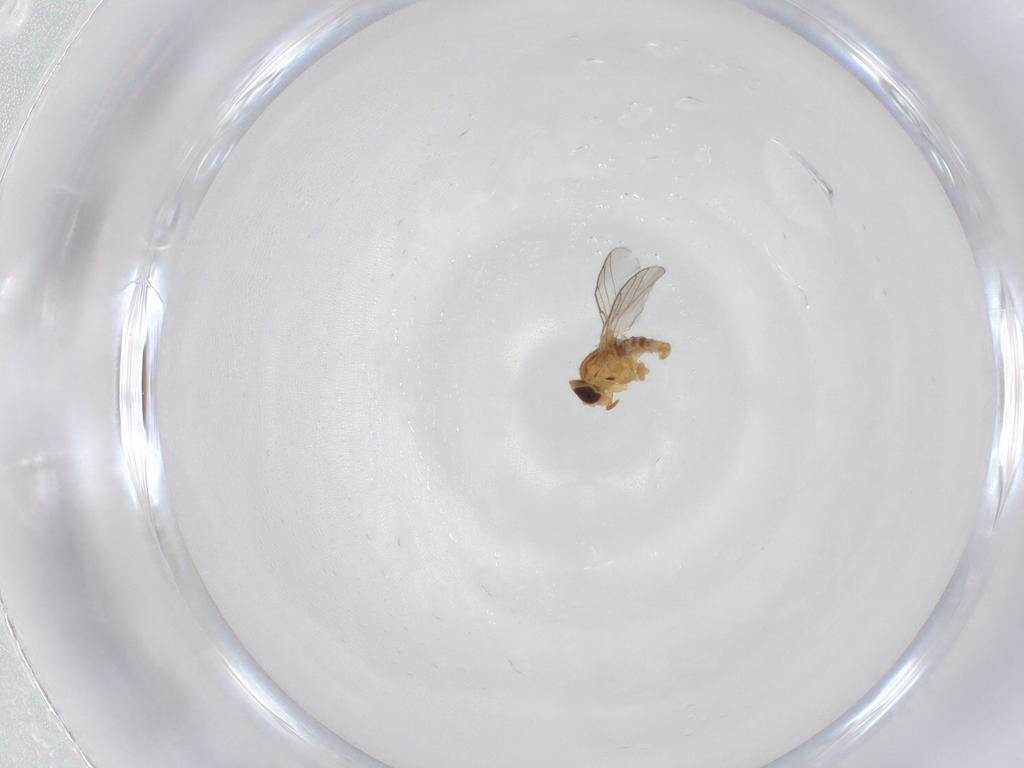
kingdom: Animalia
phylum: Arthropoda
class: Insecta
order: Diptera
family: Chloropidae
